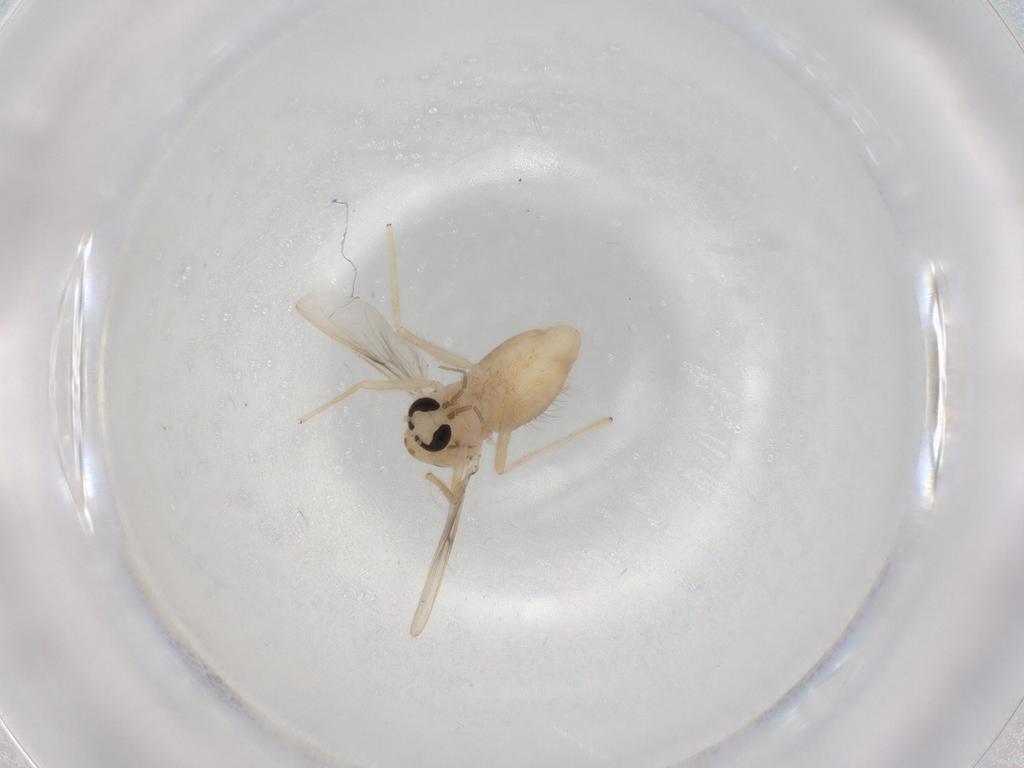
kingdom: Animalia
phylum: Arthropoda
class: Insecta
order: Diptera
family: Chironomidae
